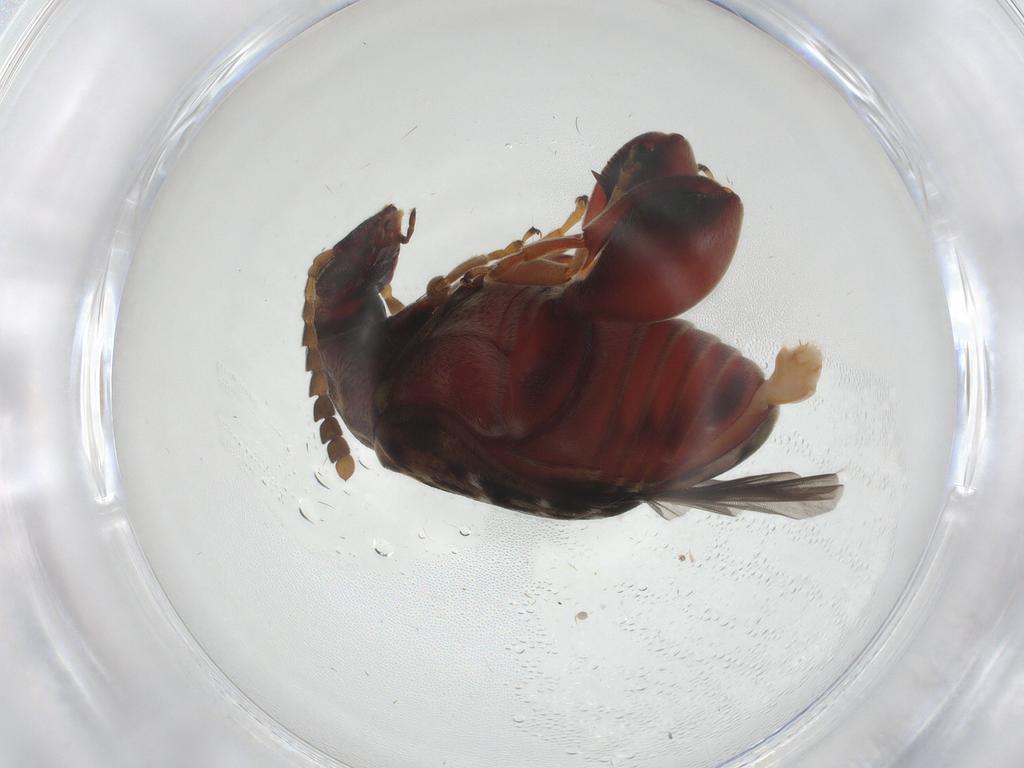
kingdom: Animalia
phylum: Arthropoda
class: Insecta
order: Coleoptera
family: Chrysomelidae
